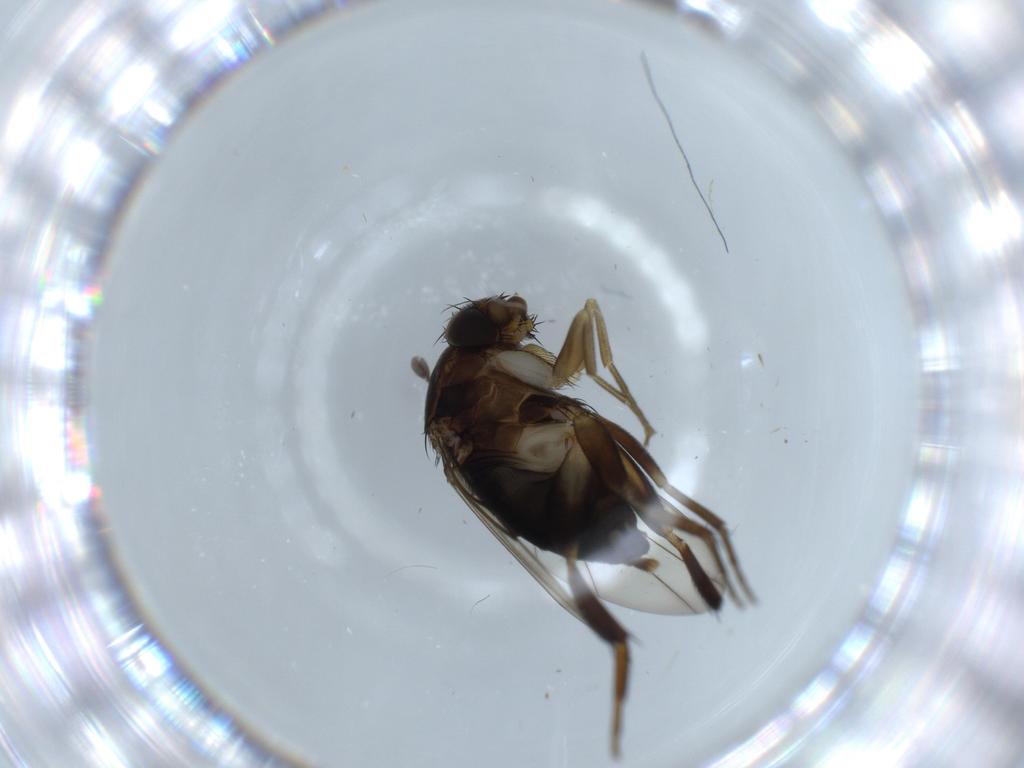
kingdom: Animalia
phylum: Arthropoda
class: Insecta
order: Diptera
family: Phoridae
